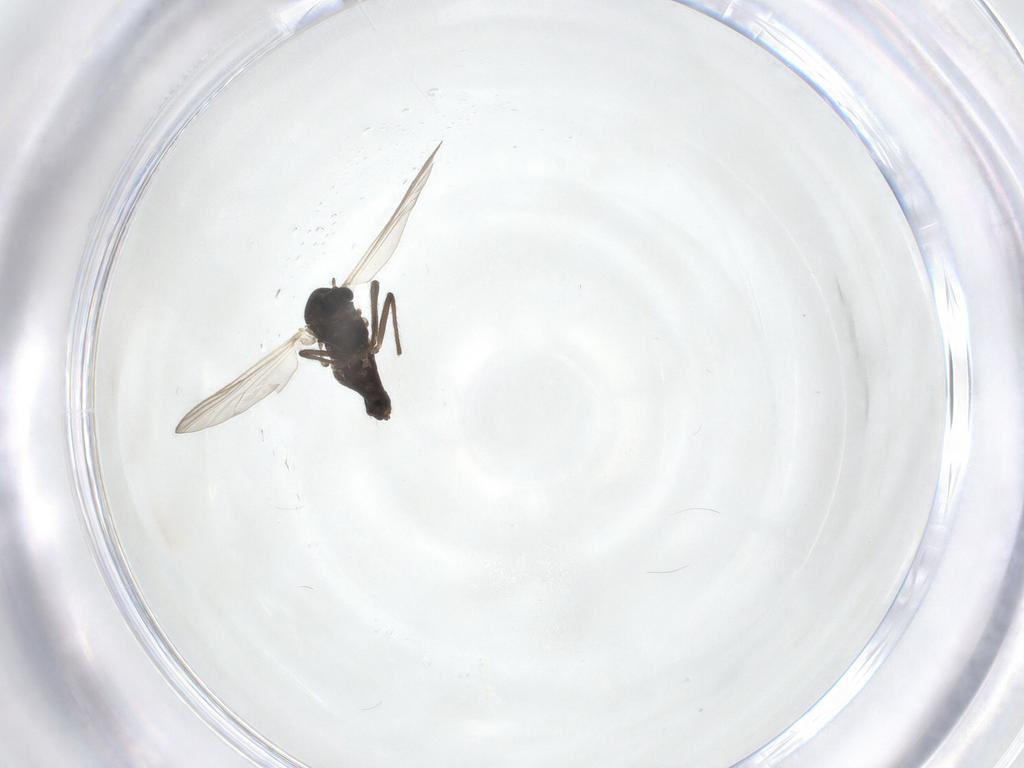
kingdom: Animalia
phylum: Arthropoda
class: Insecta
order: Diptera
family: Chironomidae
